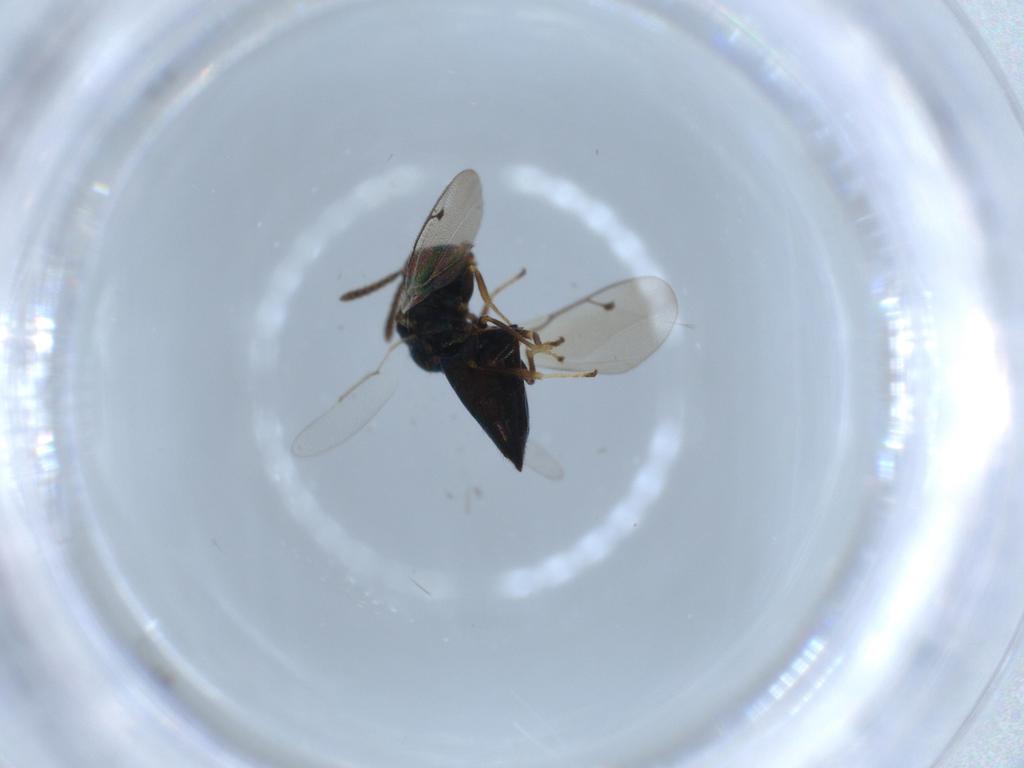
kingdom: Animalia
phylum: Arthropoda
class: Insecta
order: Hymenoptera
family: Pteromalidae
